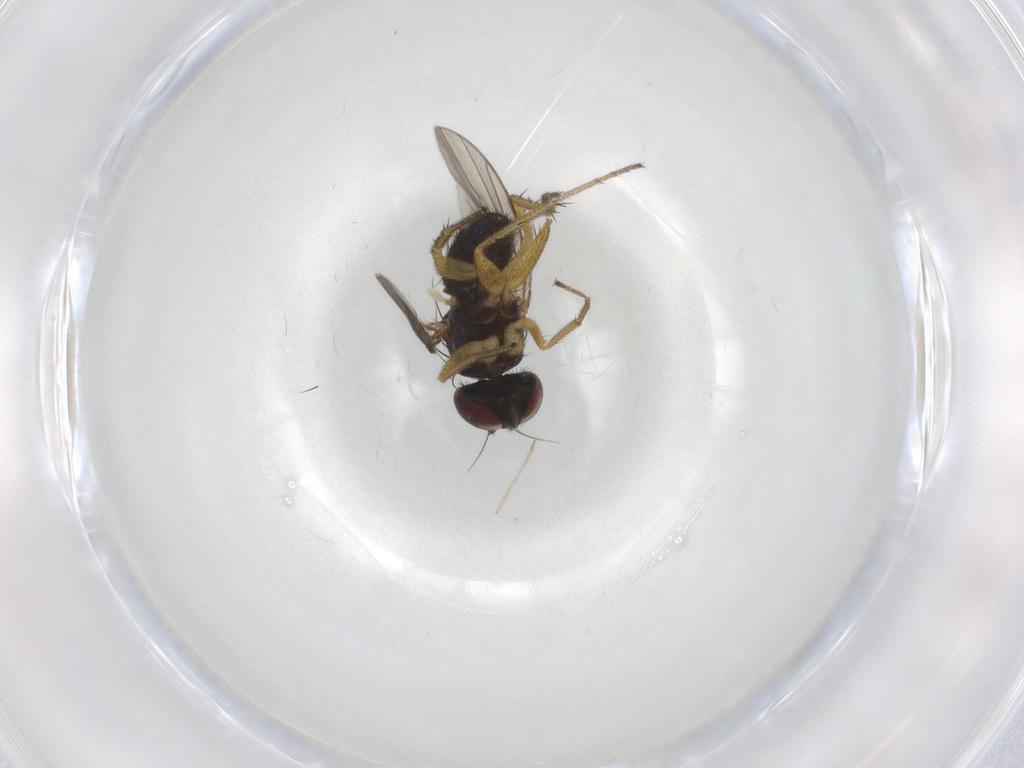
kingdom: Animalia
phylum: Arthropoda
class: Insecta
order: Diptera
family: Chironomidae
